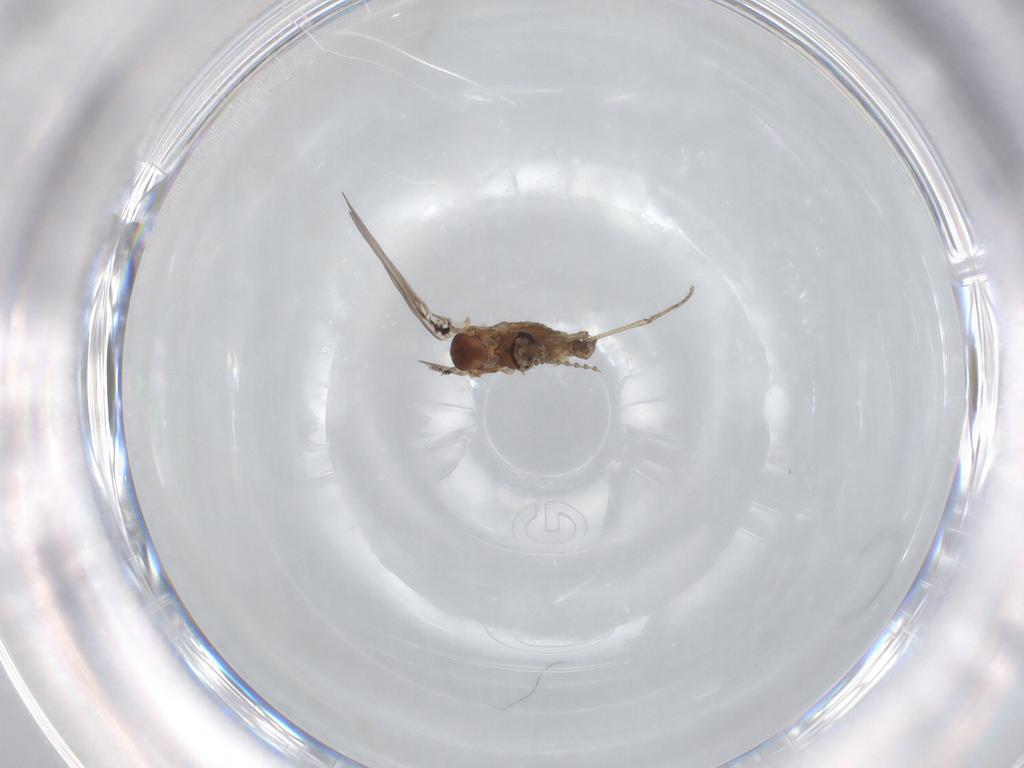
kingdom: Animalia
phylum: Arthropoda
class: Insecta
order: Diptera
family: Psychodidae
